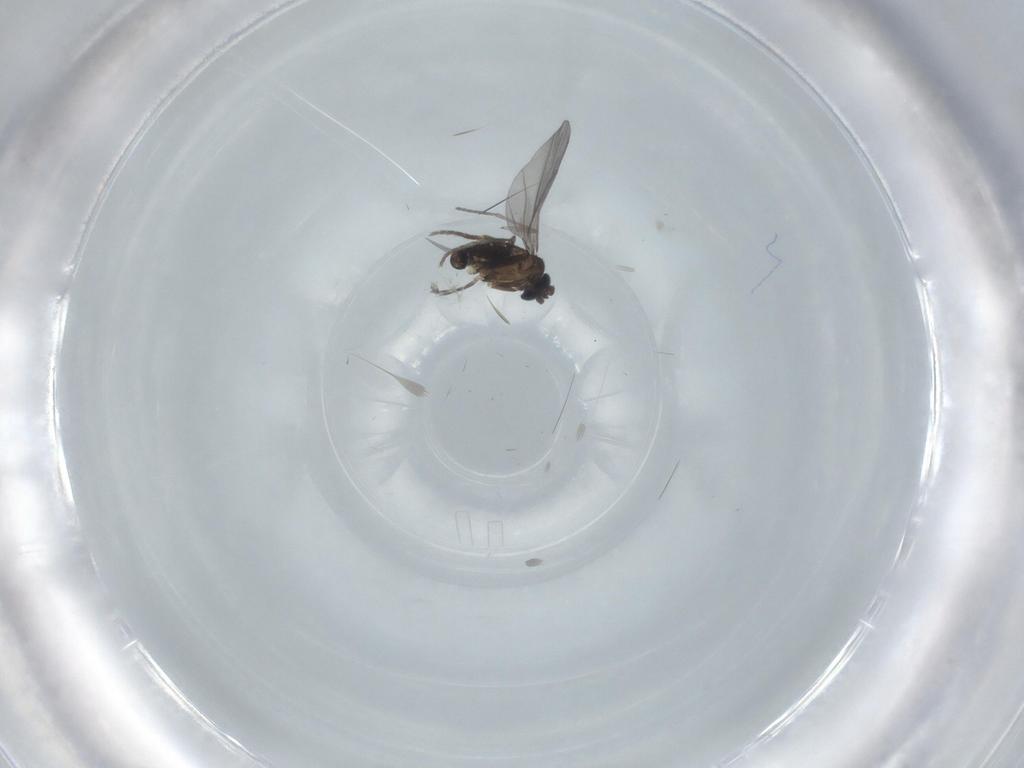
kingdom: Animalia
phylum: Arthropoda
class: Insecta
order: Diptera
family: Sciaridae
